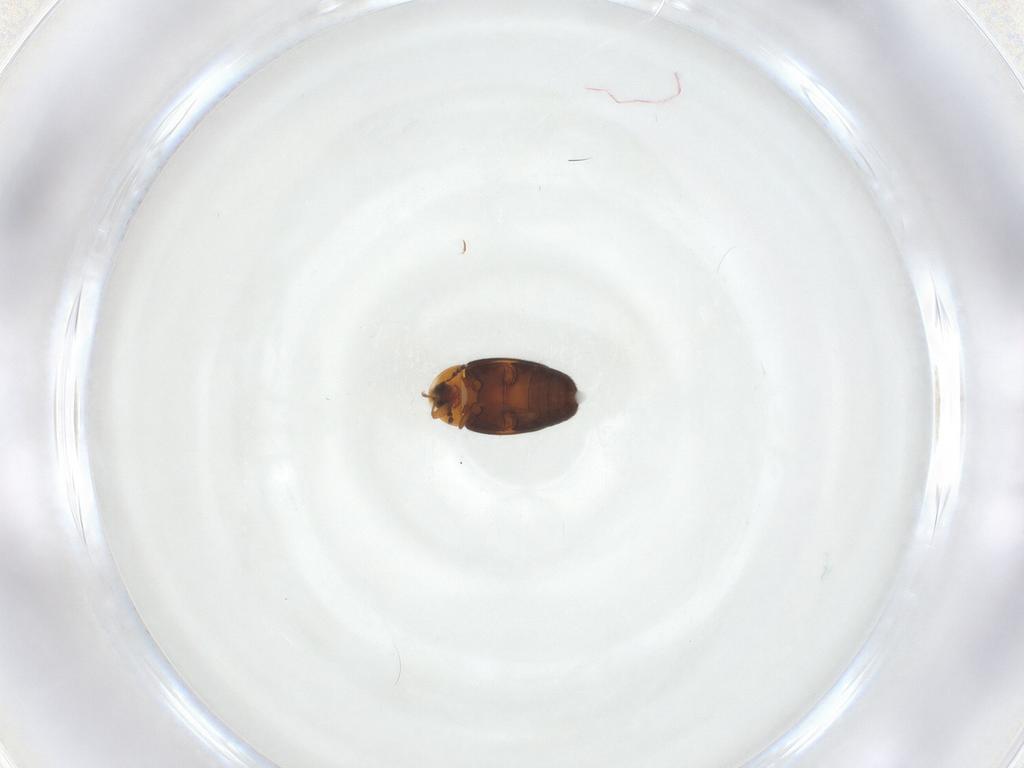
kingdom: Animalia
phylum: Arthropoda
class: Insecta
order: Coleoptera
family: Corylophidae
